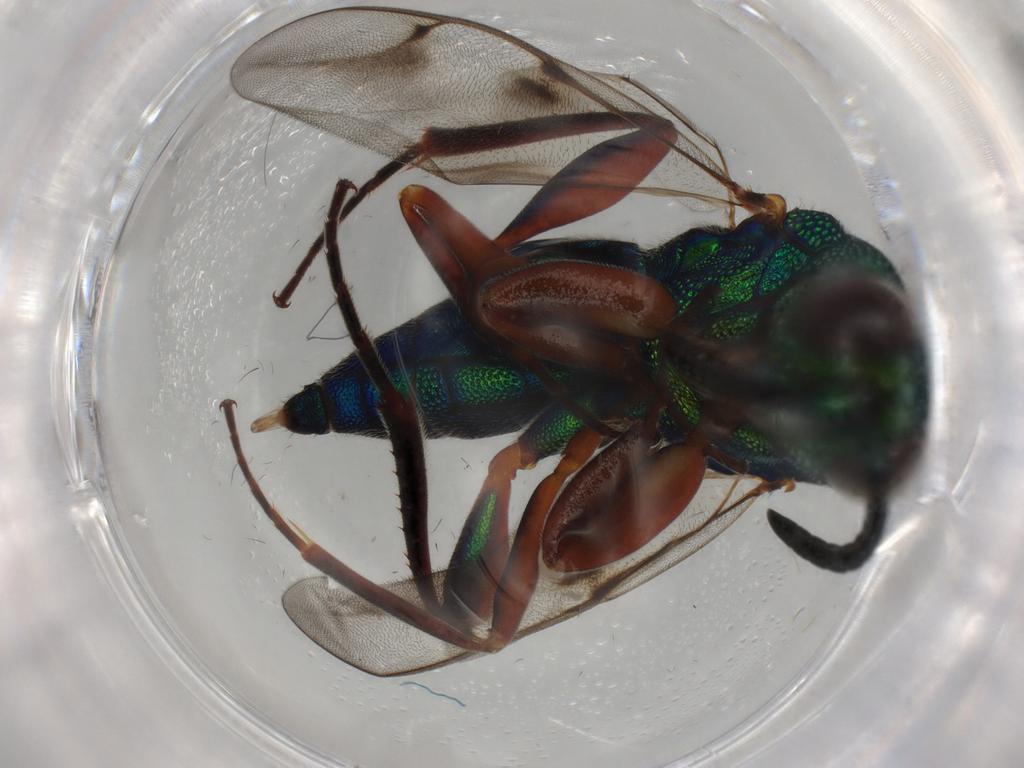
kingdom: Animalia
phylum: Arthropoda
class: Insecta
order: Hymenoptera
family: Lyciscidae
